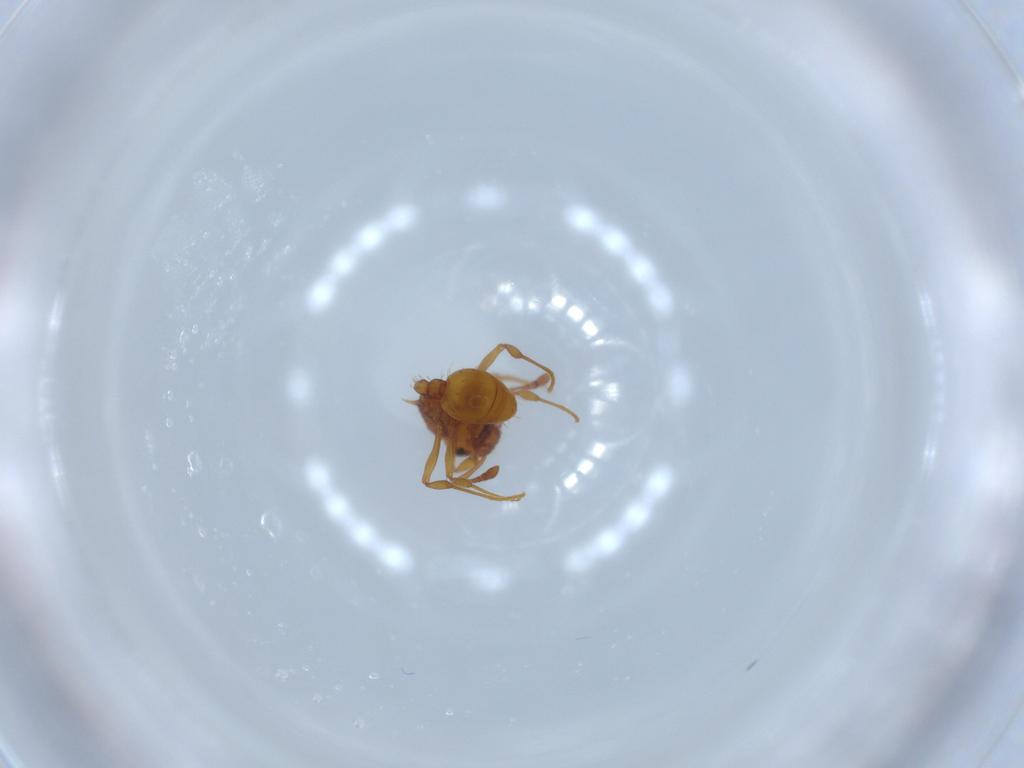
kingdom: Animalia
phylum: Arthropoda
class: Insecta
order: Hymenoptera
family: Formicidae
